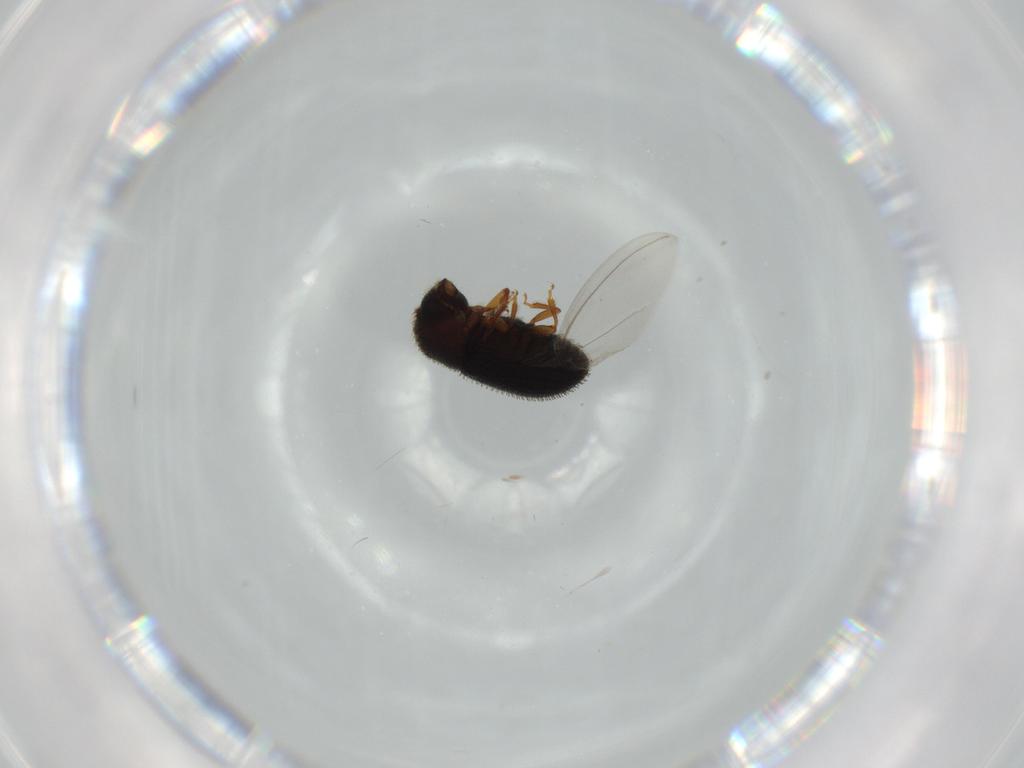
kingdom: Animalia
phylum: Arthropoda
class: Insecta
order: Coleoptera
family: Curculionidae
